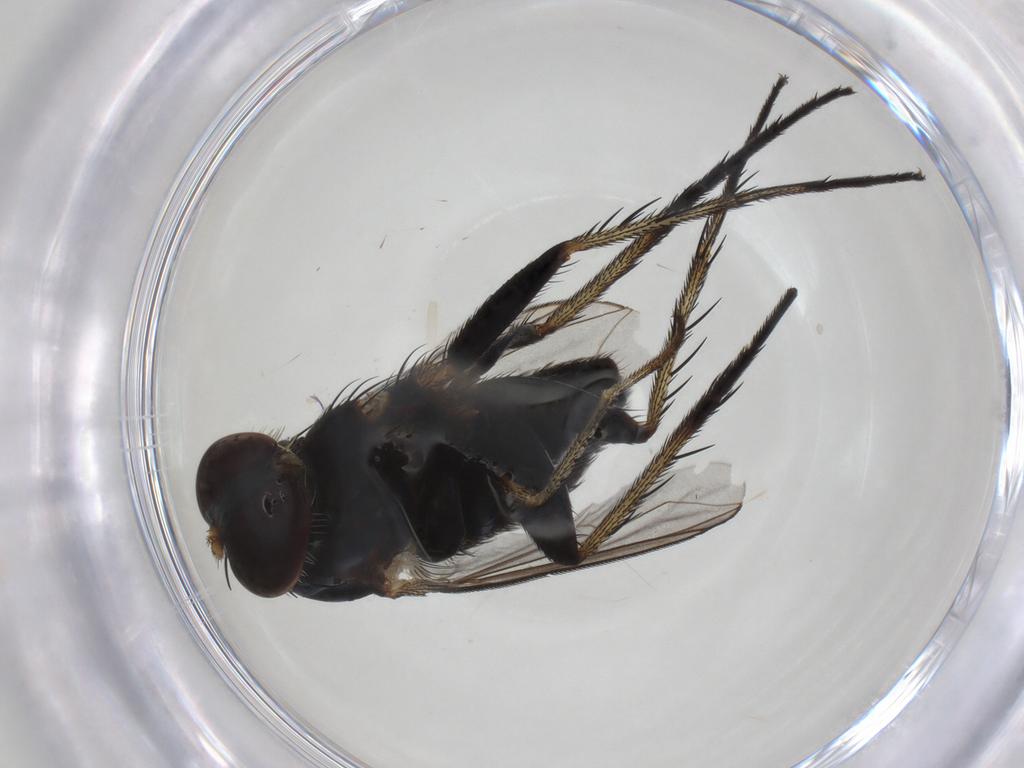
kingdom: Animalia
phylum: Arthropoda
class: Insecta
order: Diptera
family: Dolichopodidae
